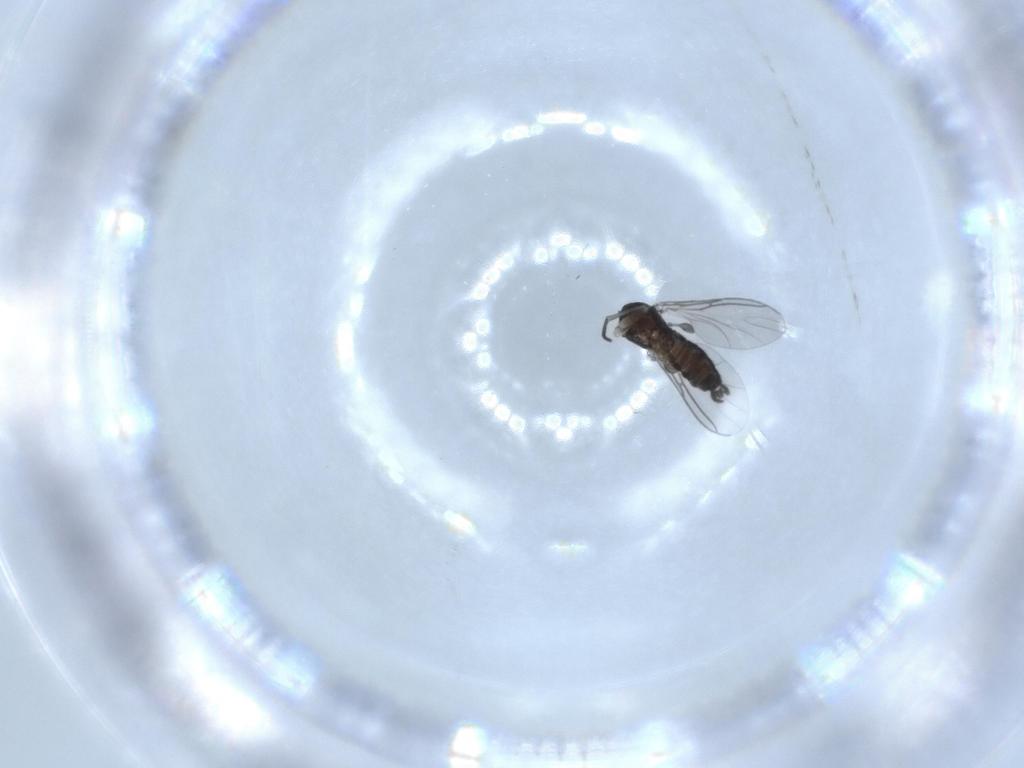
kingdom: Animalia
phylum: Arthropoda
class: Insecta
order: Diptera
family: Sciaridae
